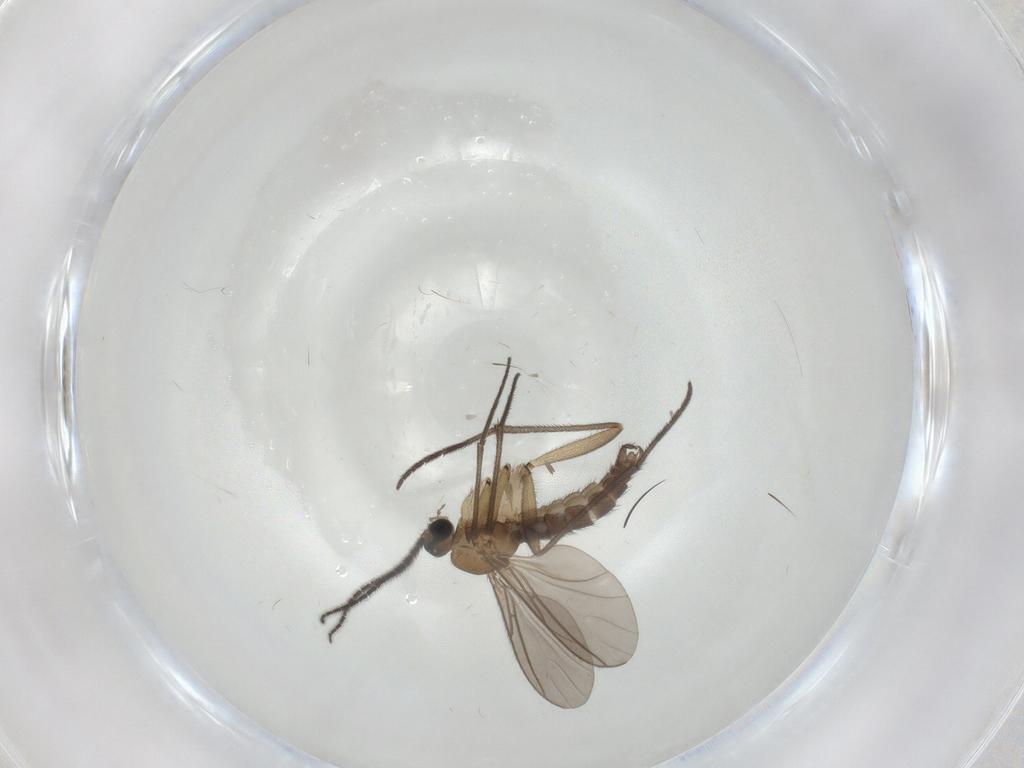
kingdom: Animalia
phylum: Arthropoda
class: Insecta
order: Diptera
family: Sciaridae
